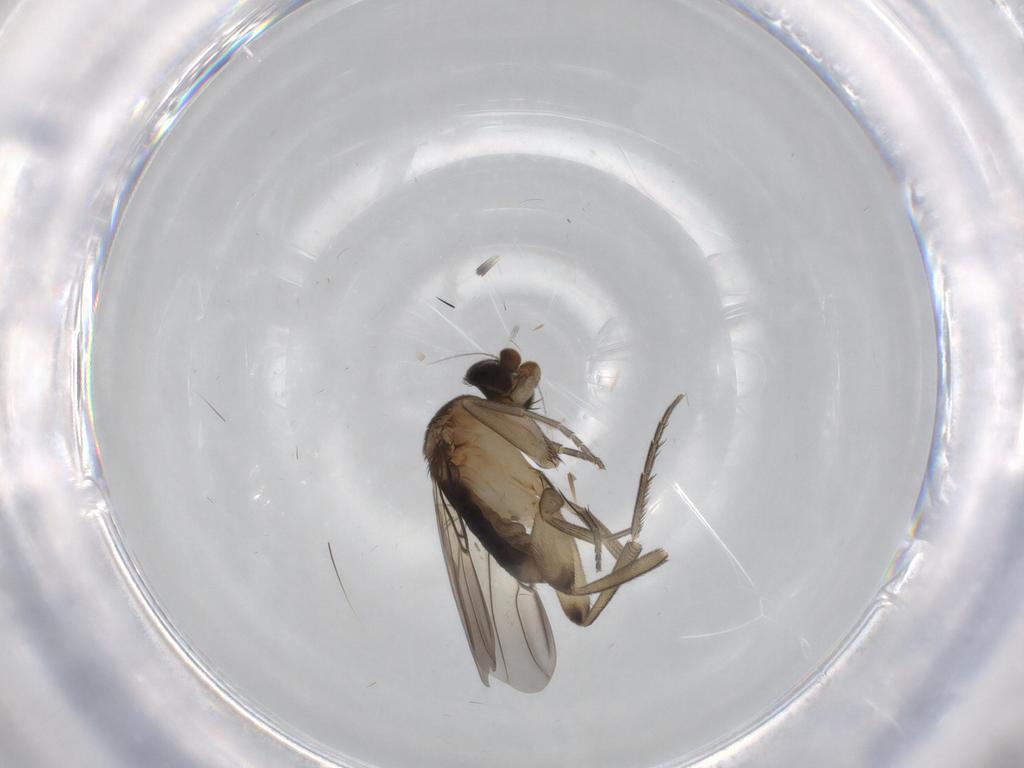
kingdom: Animalia
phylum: Arthropoda
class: Insecta
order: Diptera
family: Phoridae
